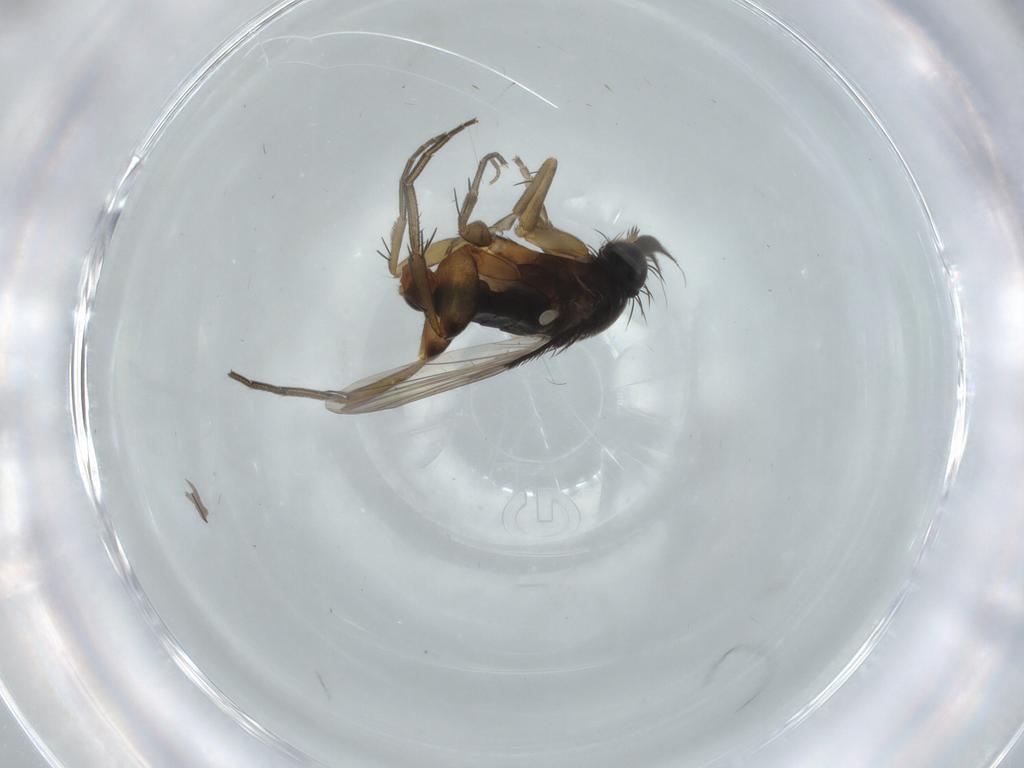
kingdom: Animalia
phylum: Arthropoda
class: Insecta
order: Diptera
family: Phoridae
